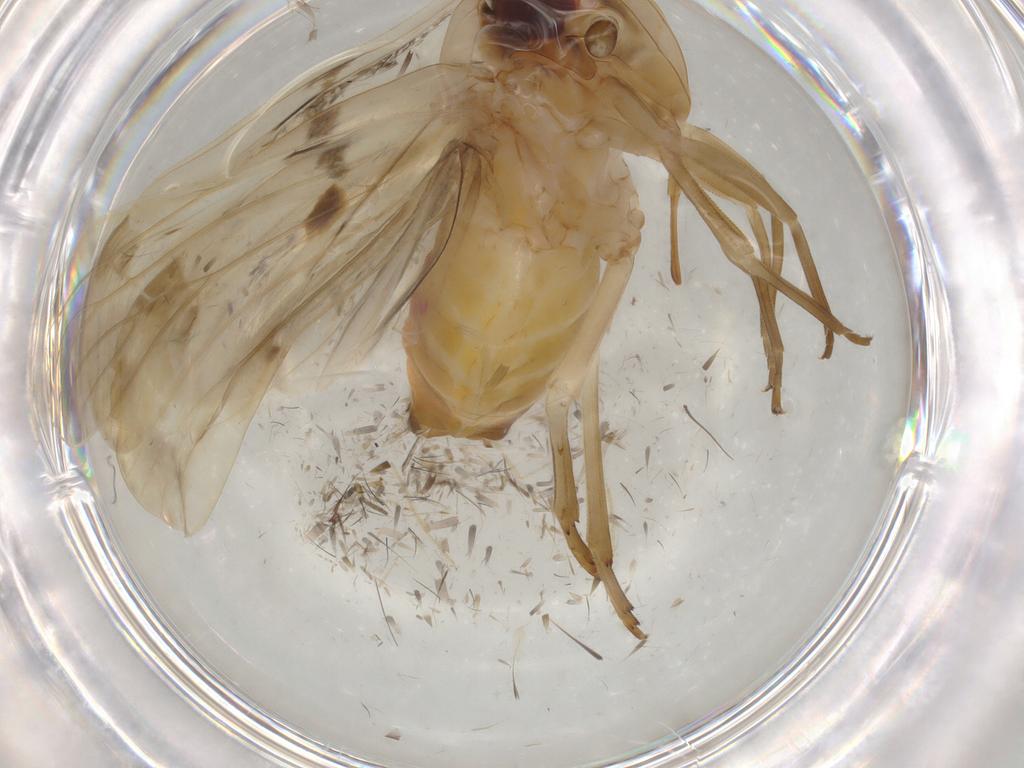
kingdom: Animalia
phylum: Arthropoda
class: Insecta
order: Hemiptera
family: Achilidae
